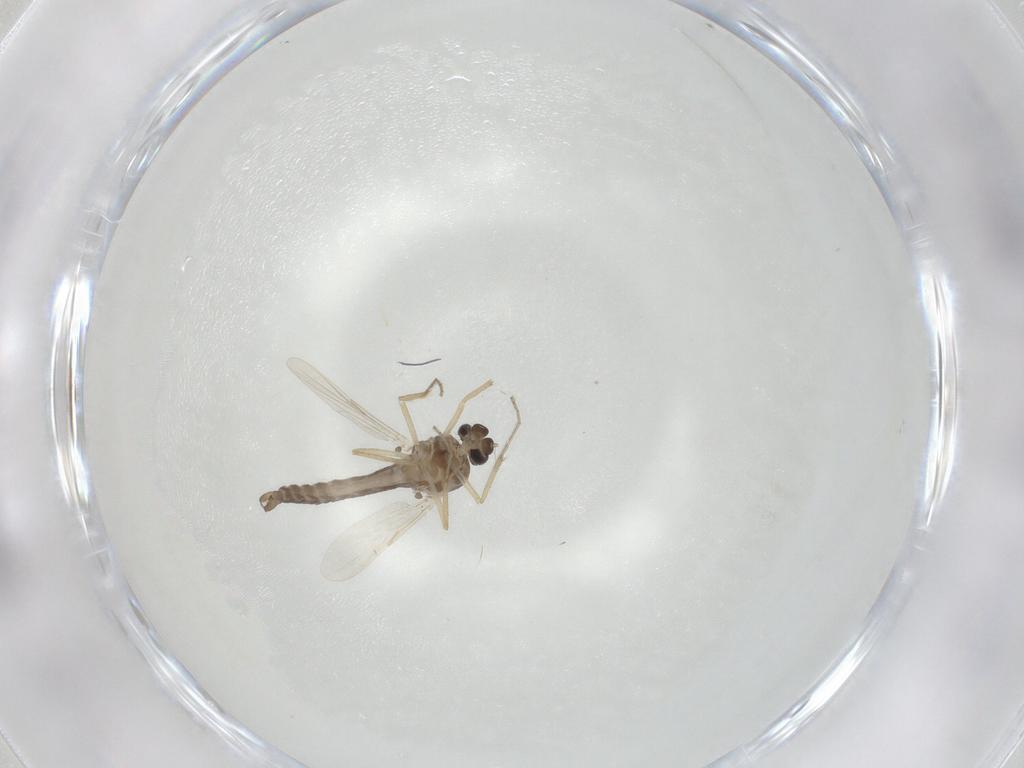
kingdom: Animalia
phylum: Arthropoda
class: Insecta
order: Diptera
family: Ceratopogonidae
